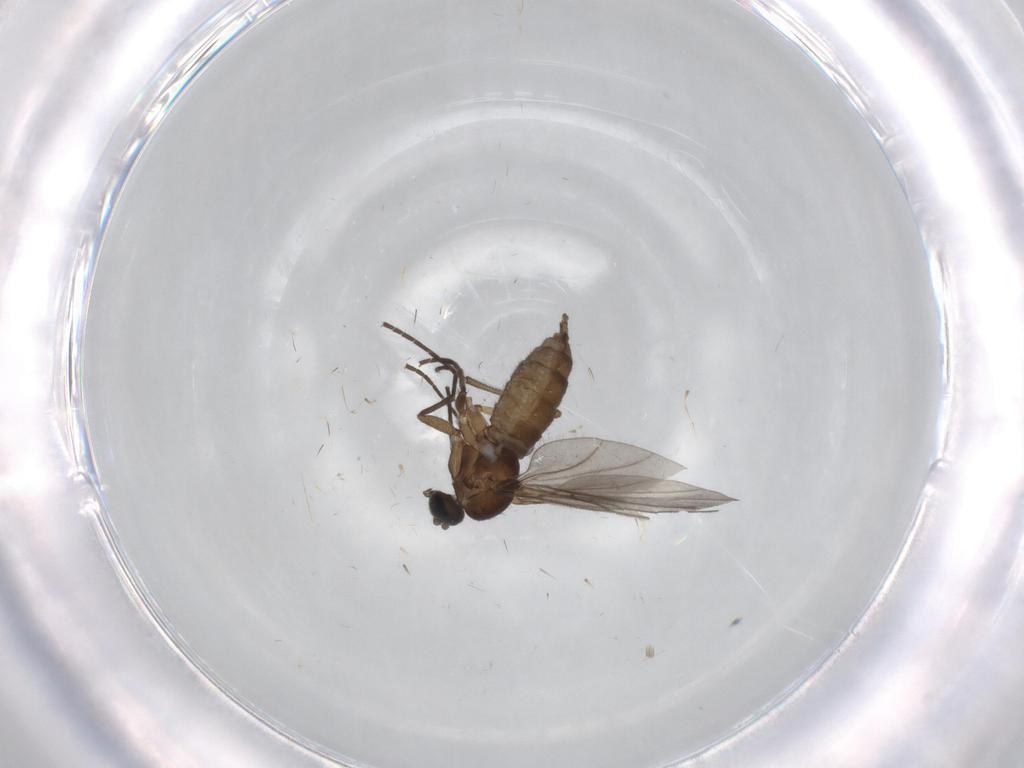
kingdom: Animalia
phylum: Arthropoda
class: Insecta
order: Diptera
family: Sciaridae
